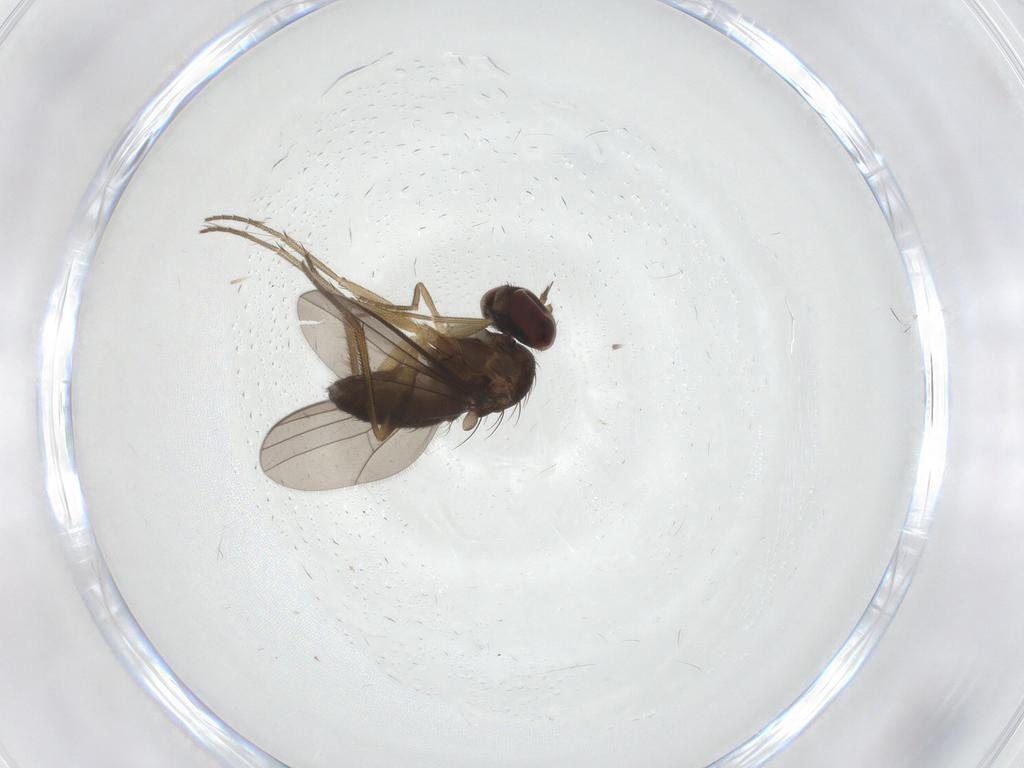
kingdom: Animalia
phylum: Arthropoda
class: Insecta
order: Diptera
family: Dolichopodidae
